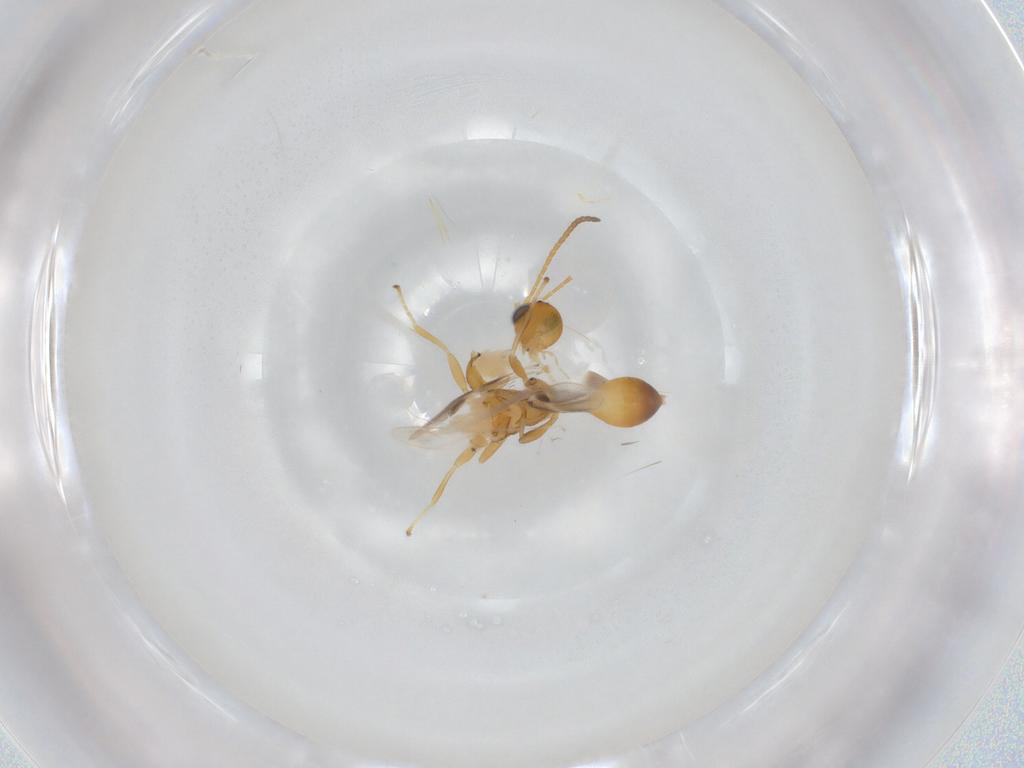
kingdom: Animalia
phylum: Arthropoda
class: Insecta
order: Hymenoptera
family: Braconidae
